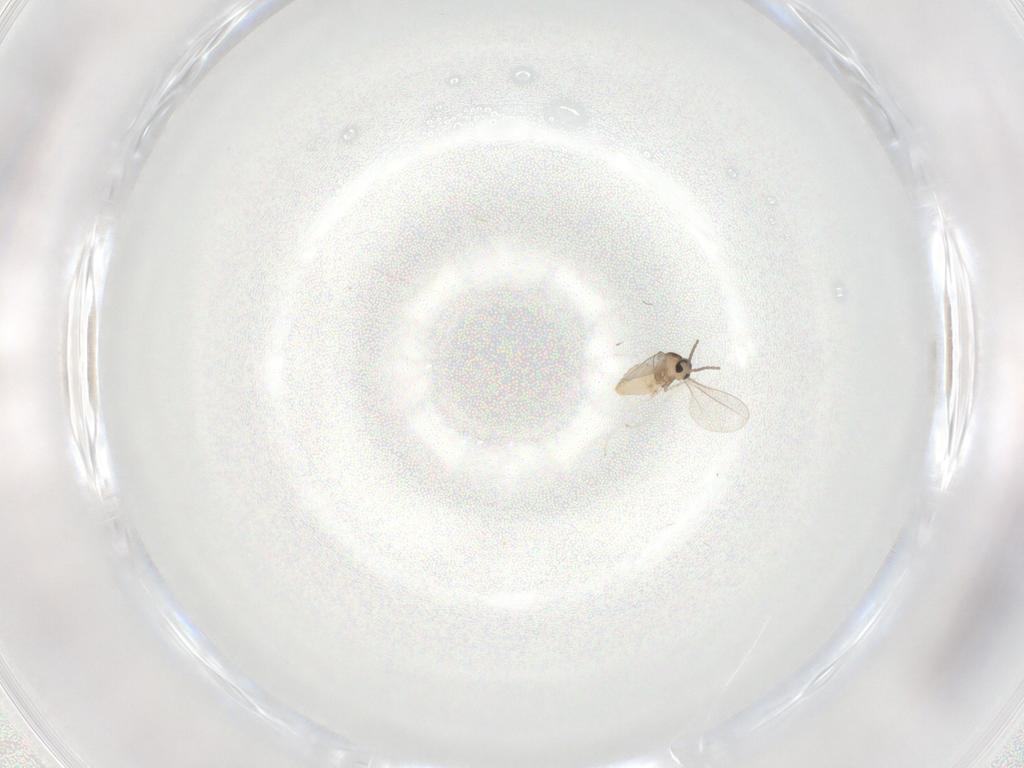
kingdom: Animalia
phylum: Arthropoda
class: Insecta
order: Diptera
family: Cecidomyiidae
